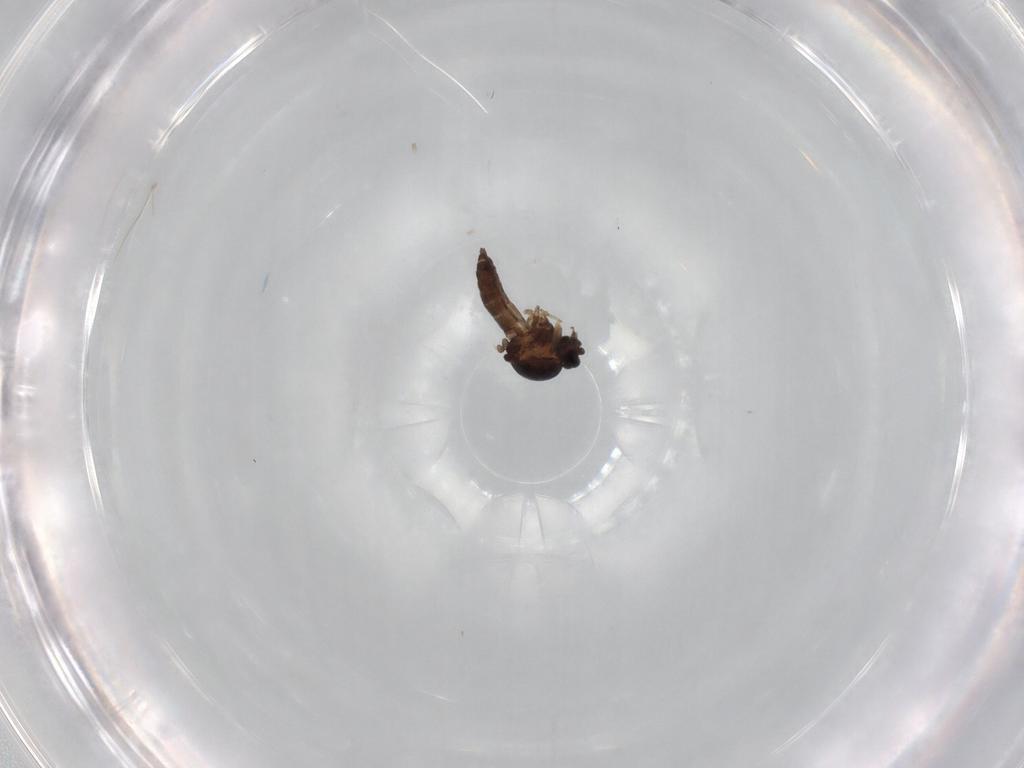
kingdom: Animalia
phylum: Arthropoda
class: Insecta
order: Diptera
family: Ceratopogonidae
